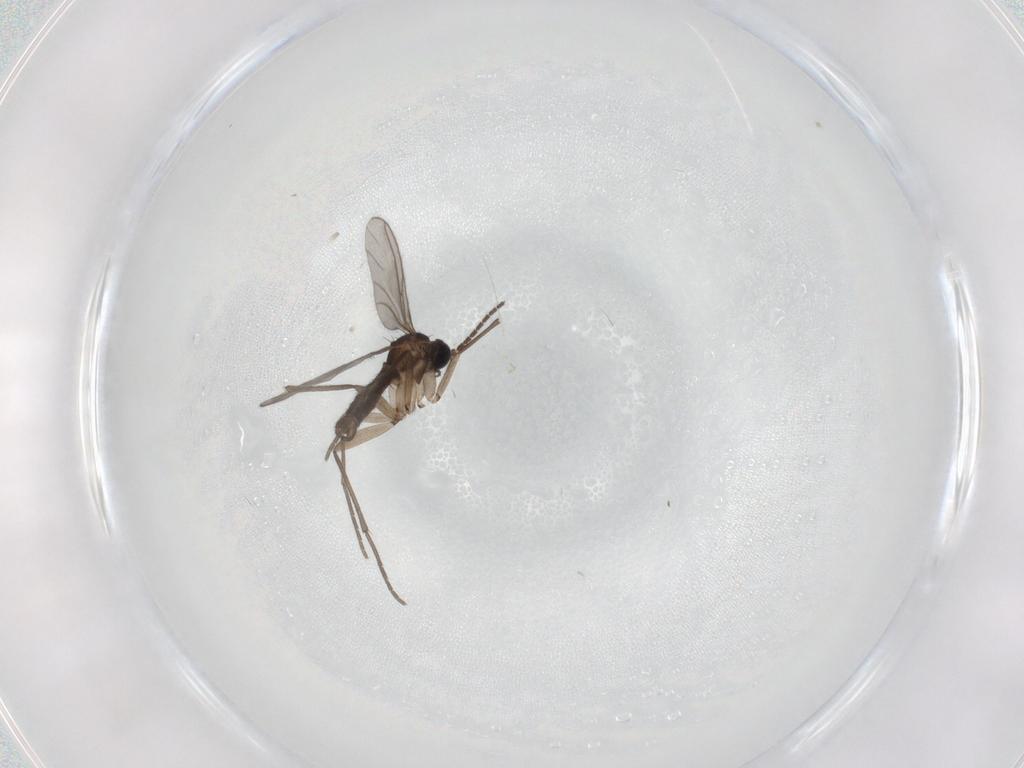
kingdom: Animalia
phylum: Arthropoda
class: Insecta
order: Diptera
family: Sciaridae
